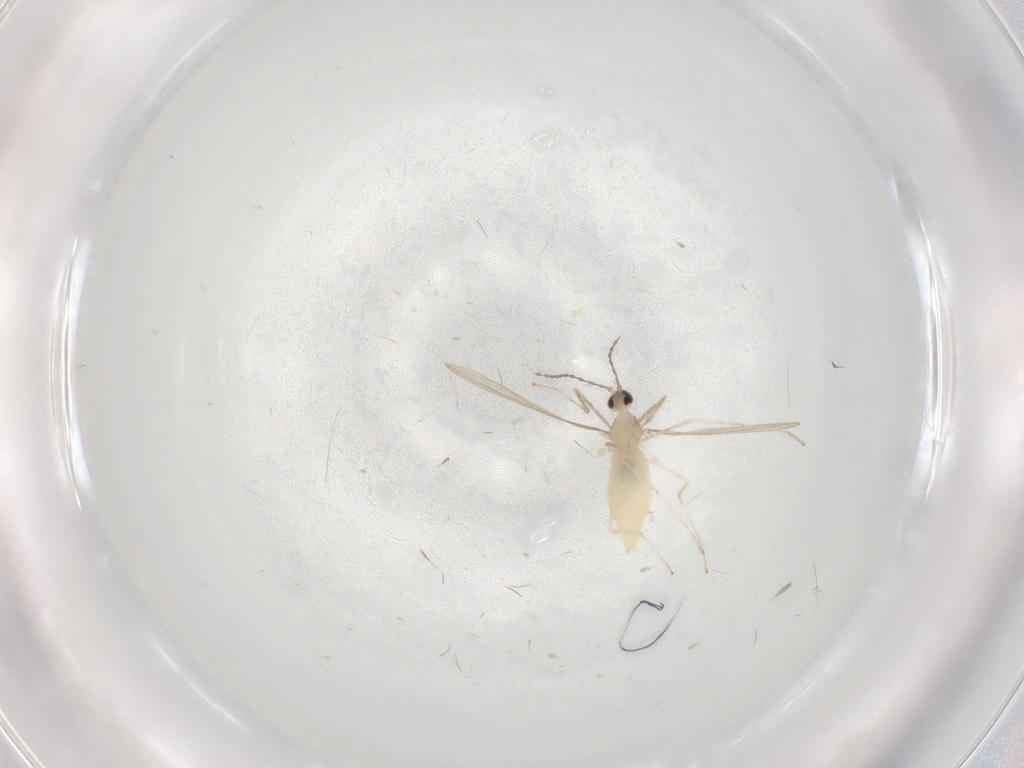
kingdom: Animalia
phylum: Arthropoda
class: Insecta
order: Diptera
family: Cecidomyiidae
